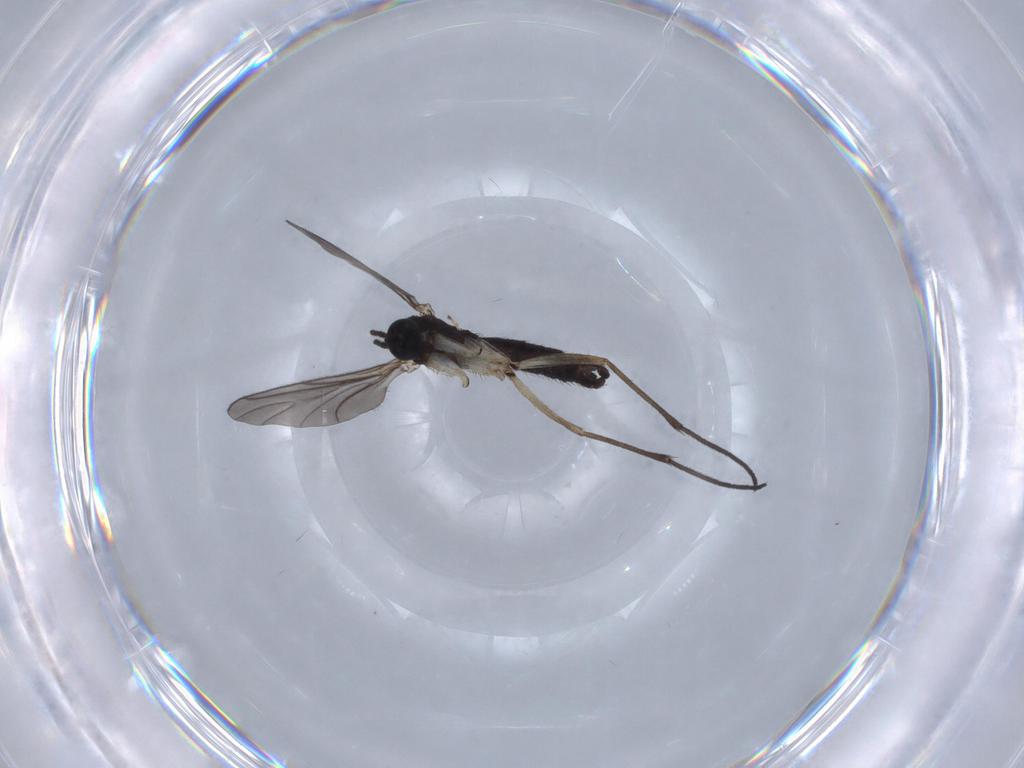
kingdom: Animalia
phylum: Arthropoda
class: Insecta
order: Diptera
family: Sciaridae
